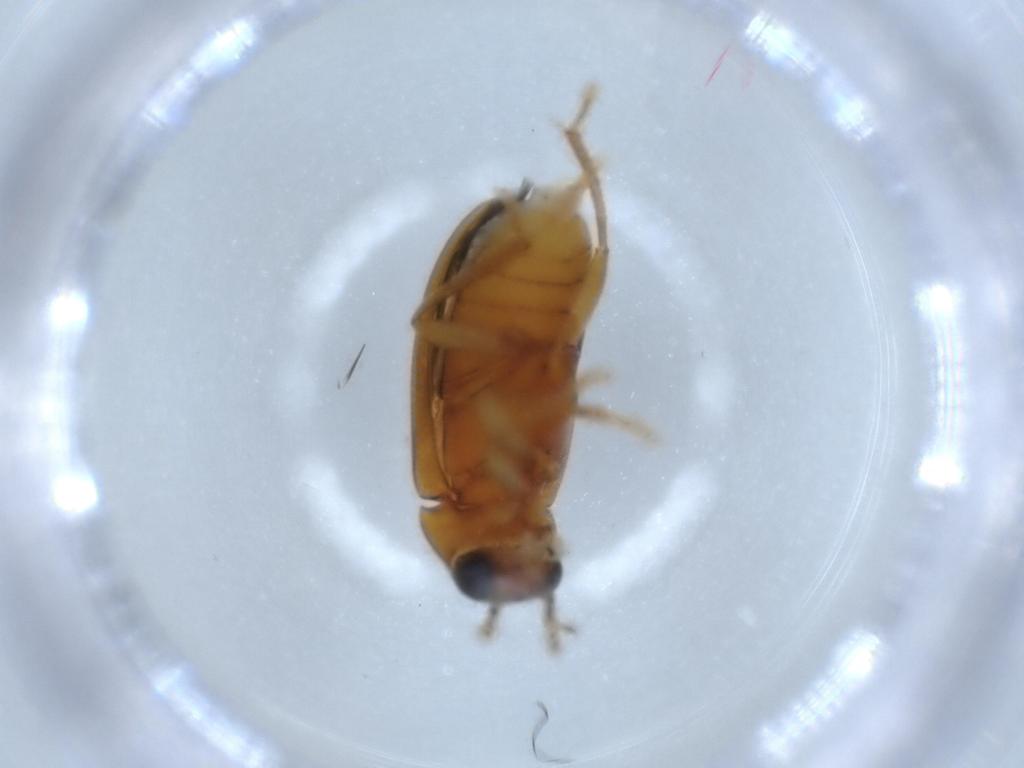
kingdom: Animalia
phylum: Arthropoda
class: Insecta
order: Coleoptera
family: Ptilodactylidae
